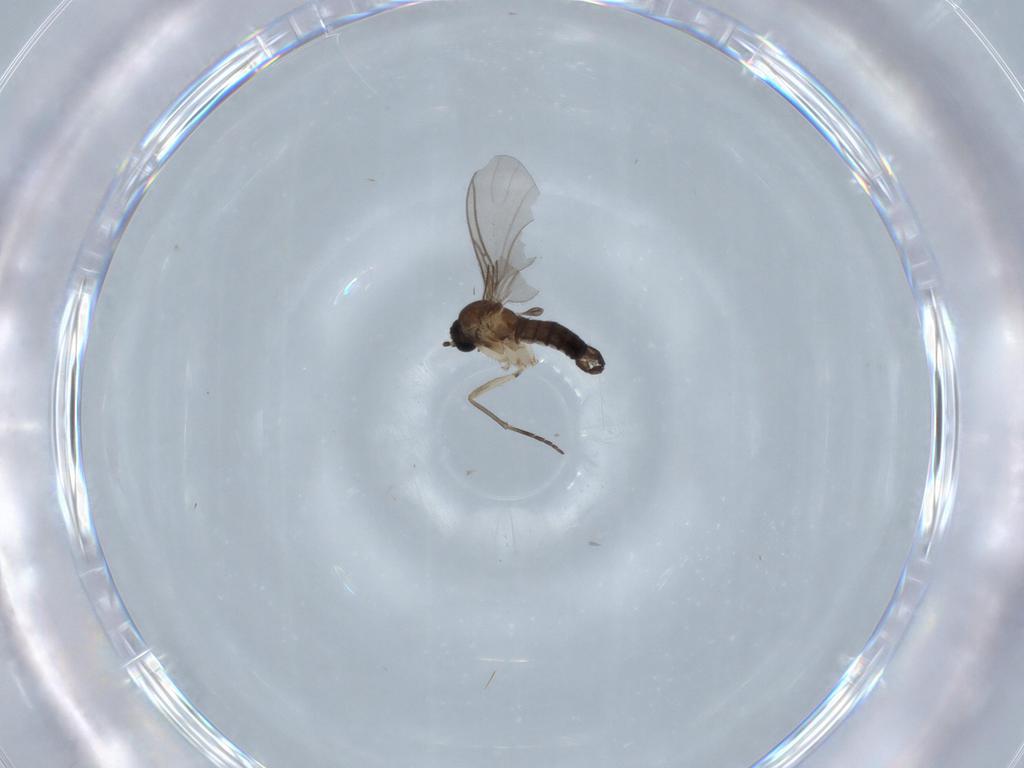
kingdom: Animalia
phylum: Arthropoda
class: Insecta
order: Diptera
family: Sciaridae
